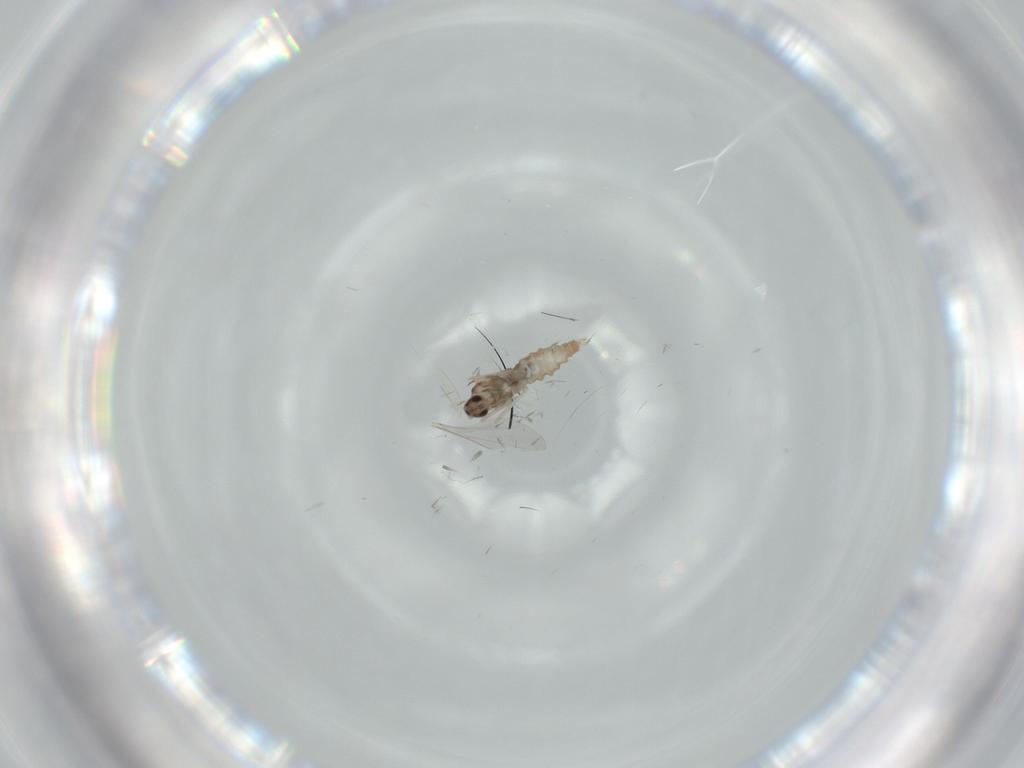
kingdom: Animalia
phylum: Arthropoda
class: Insecta
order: Diptera
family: Cecidomyiidae
